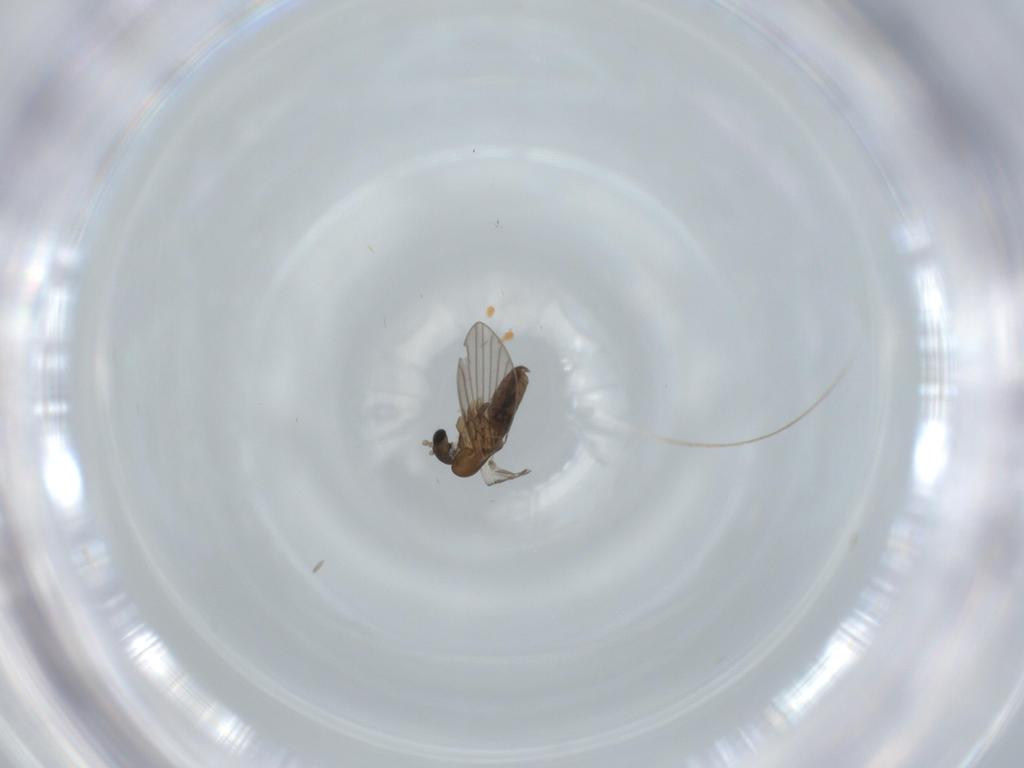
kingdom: Animalia
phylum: Arthropoda
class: Insecta
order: Diptera
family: Psychodidae
